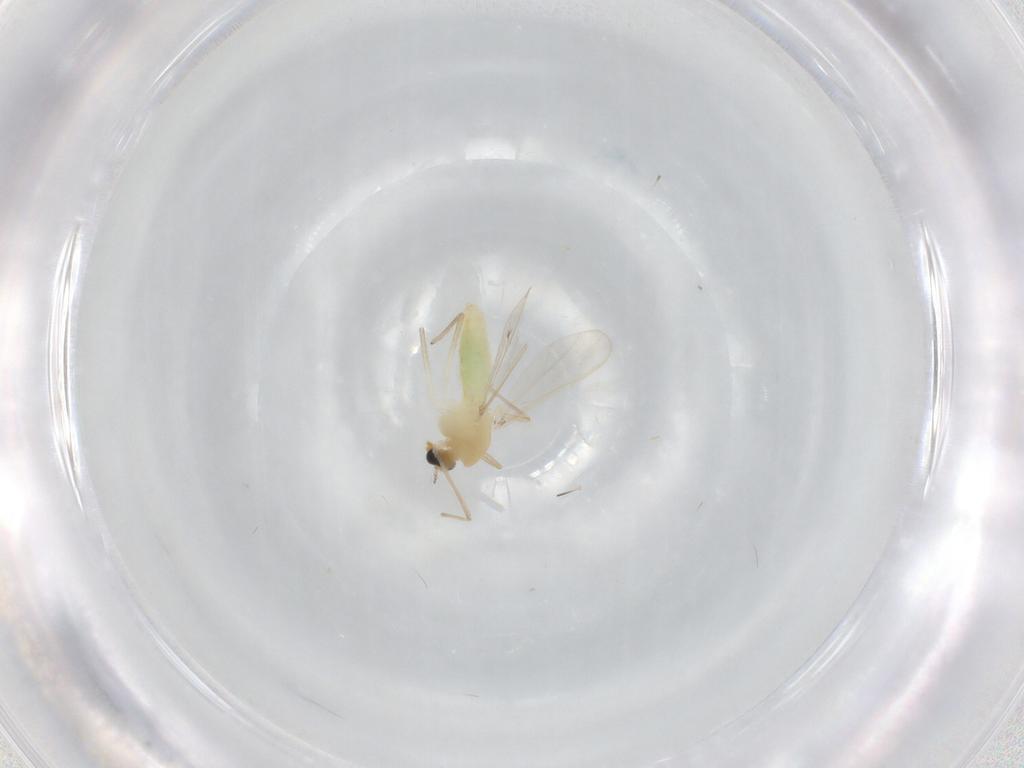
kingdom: Animalia
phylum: Arthropoda
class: Insecta
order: Diptera
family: Chironomidae
